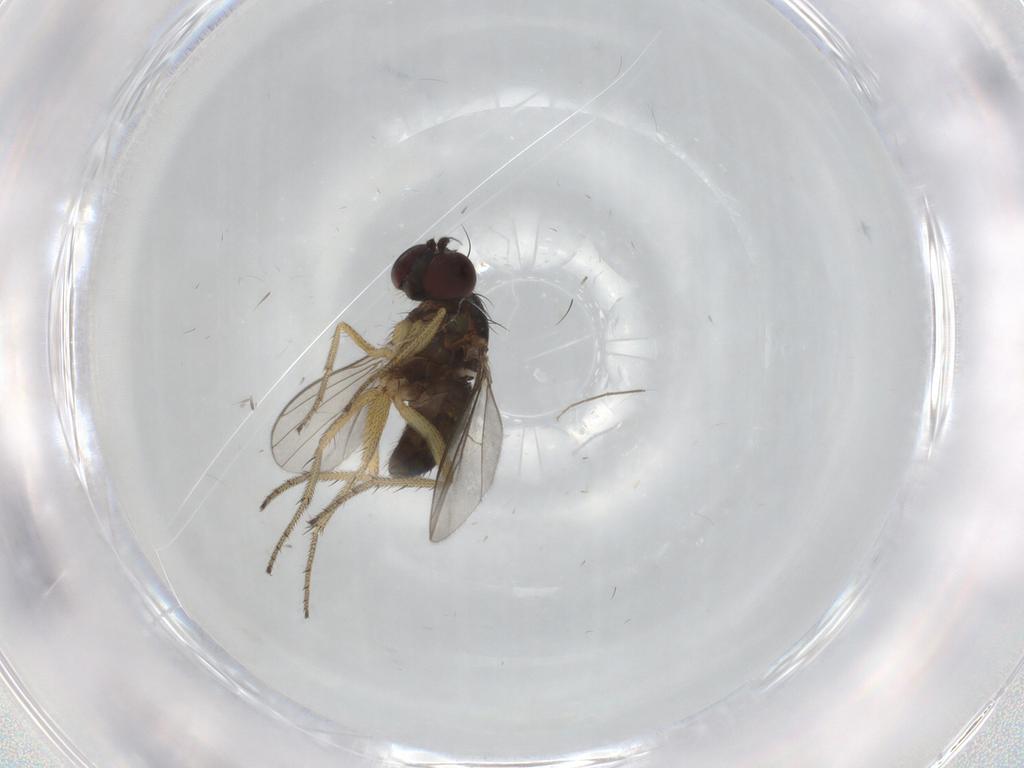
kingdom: Animalia
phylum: Arthropoda
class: Insecta
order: Diptera
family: Dolichopodidae
